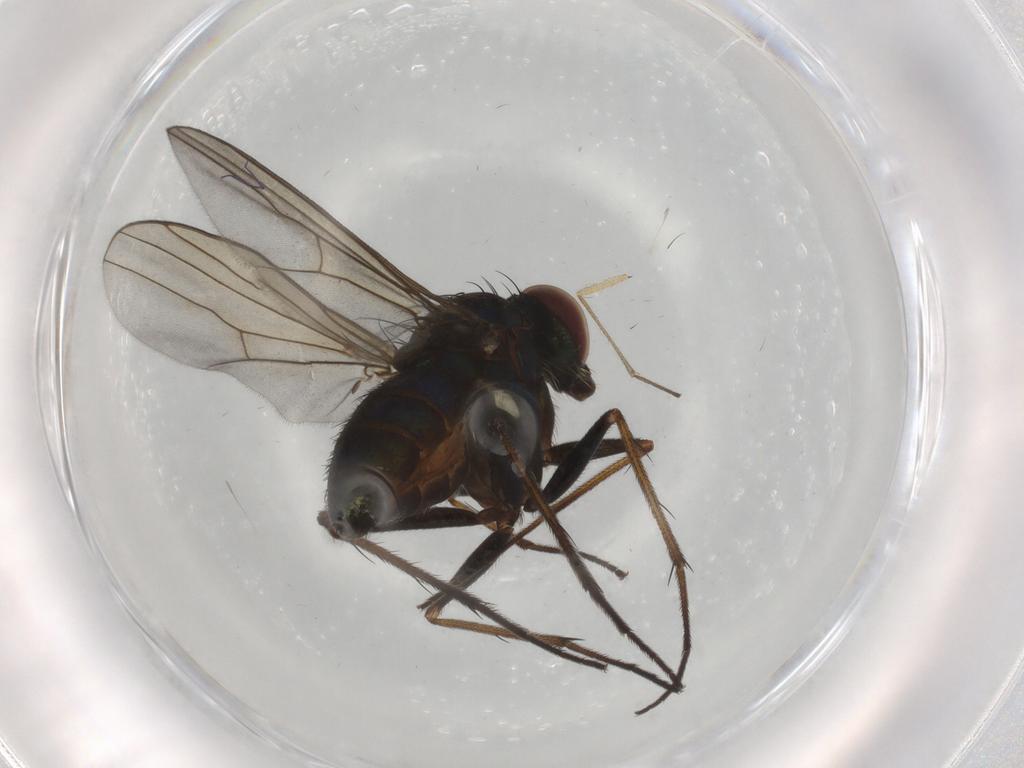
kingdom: Animalia
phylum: Arthropoda
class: Insecta
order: Diptera
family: Dolichopodidae
